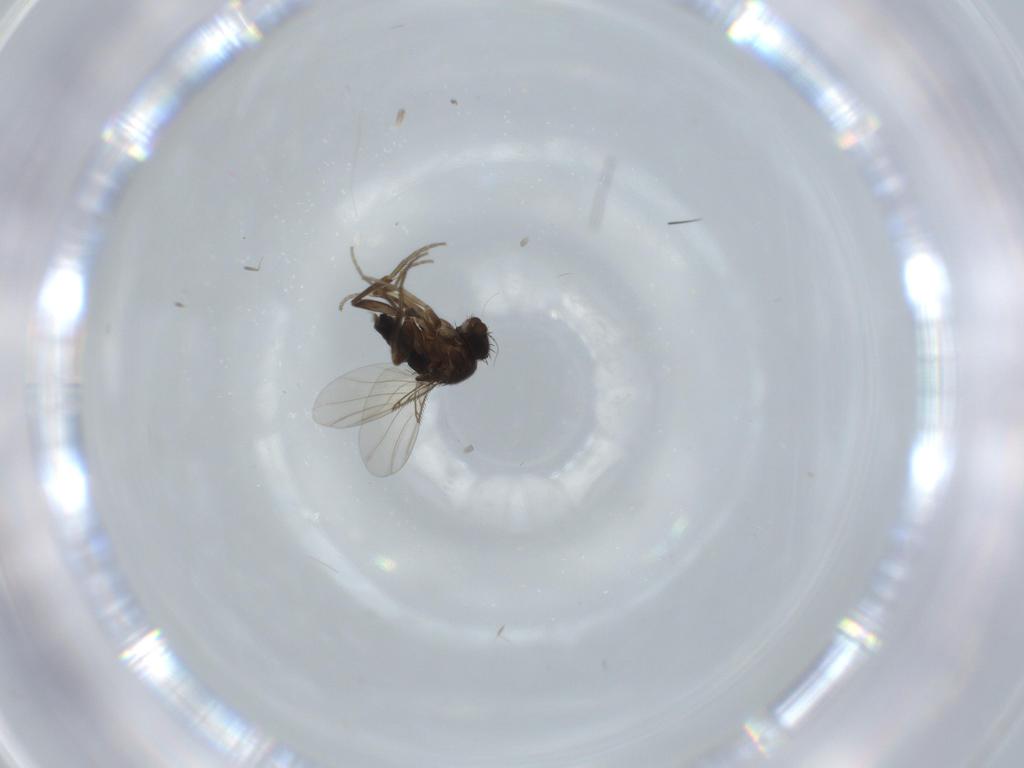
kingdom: Animalia
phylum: Arthropoda
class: Insecta
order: Diptera
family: Phoridae
